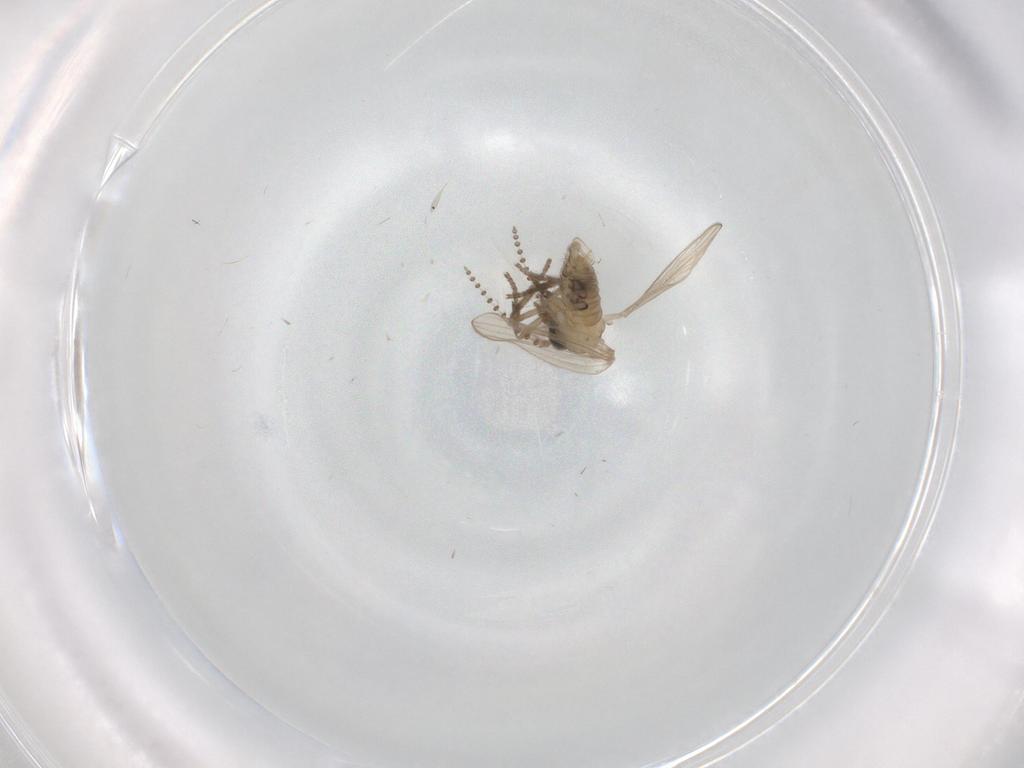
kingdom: Animalia
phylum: Arthropoda
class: Insecta
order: Diptera
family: Psychodidae
